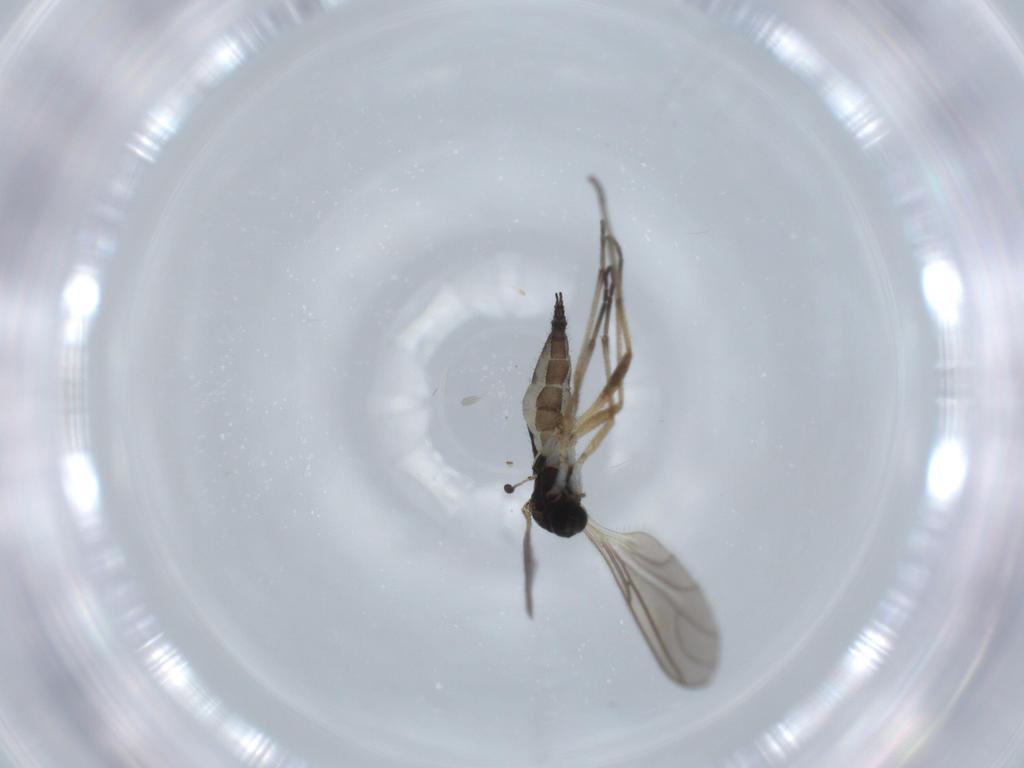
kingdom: Animalia
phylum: Arthropoda
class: Insecta
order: Diptera
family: Sciaridae
